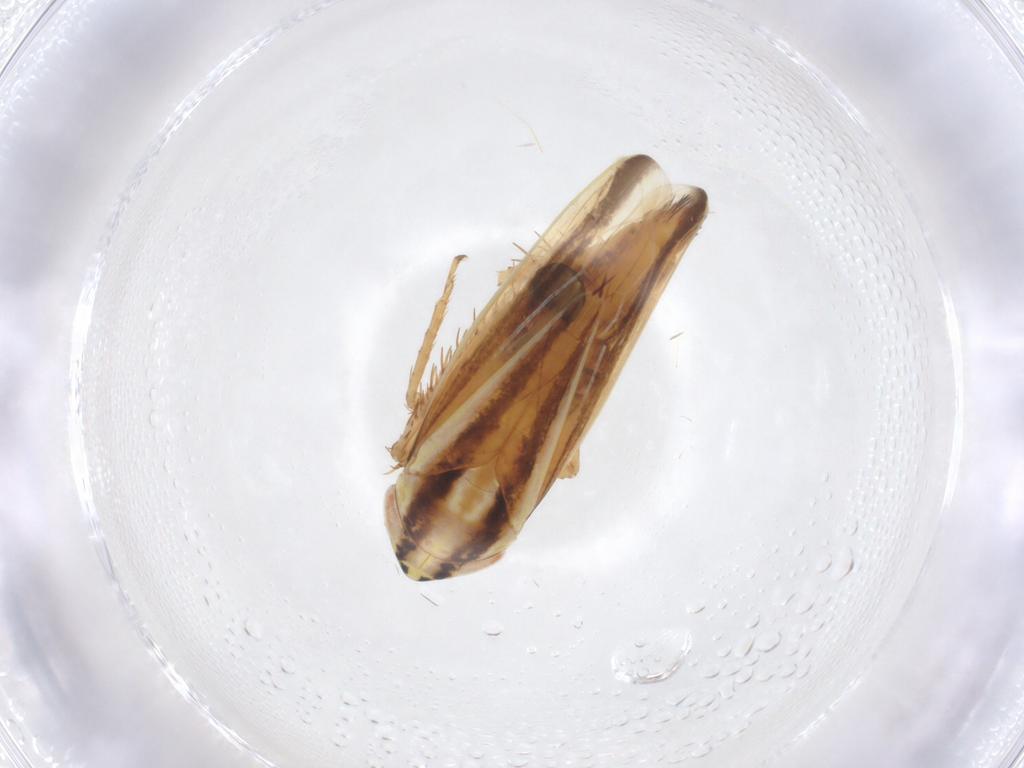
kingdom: Animalia
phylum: Arthropoda
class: Insecta
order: Hemiptera
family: Cicadellidae
